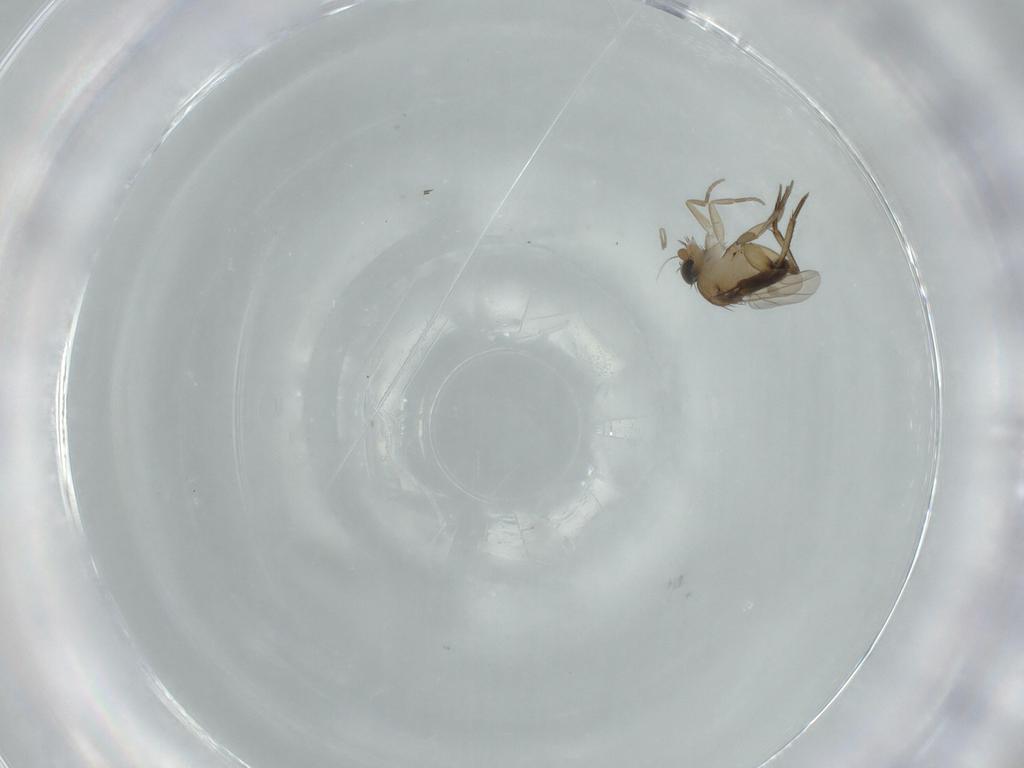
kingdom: Animalia
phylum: Arthropoda
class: Insecta
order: Diptera
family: Phoridae
